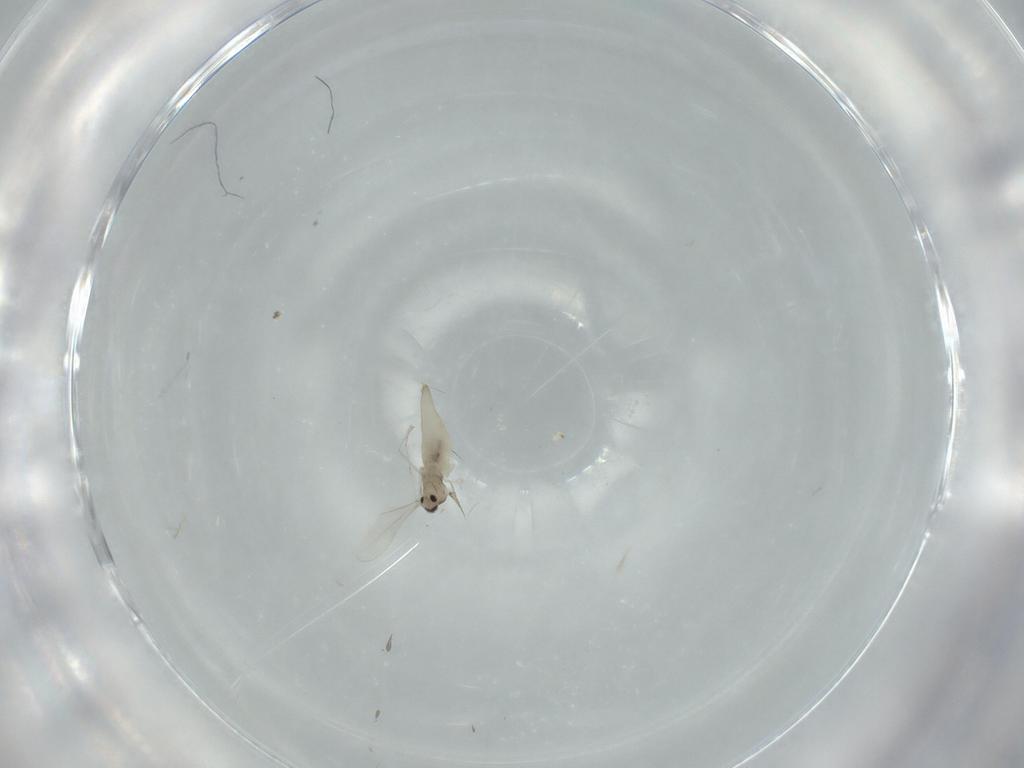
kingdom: Animalia
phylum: Arthropoda
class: Insecta
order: Diptera
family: Cecidomyiidae
